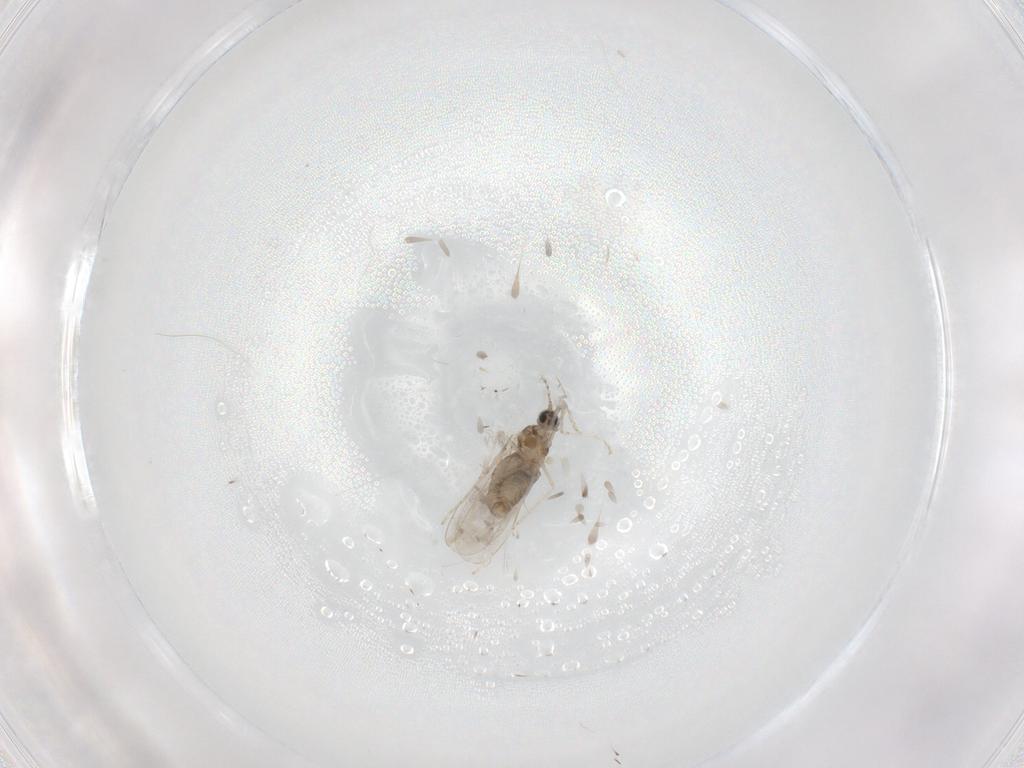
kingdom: Animalia
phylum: Arthropoda
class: Insecta
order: Diptera
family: Cecidomyiidae
